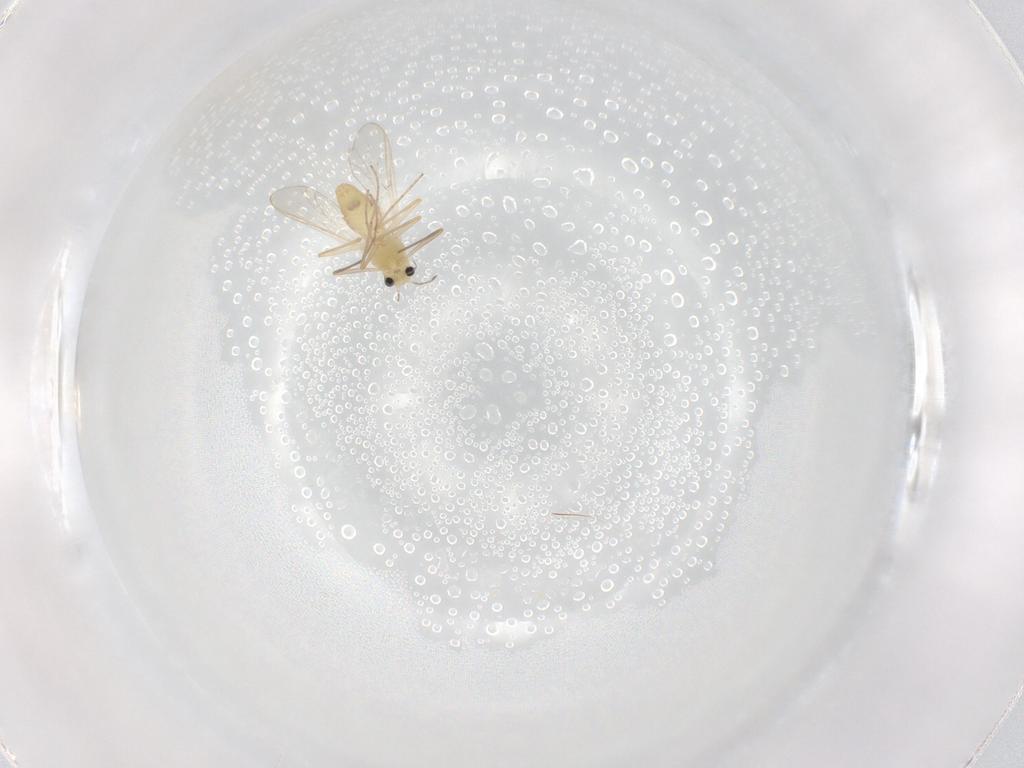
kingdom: Animalia
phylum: Arthropoda
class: Insecta
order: Diptera
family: Chironomidae
